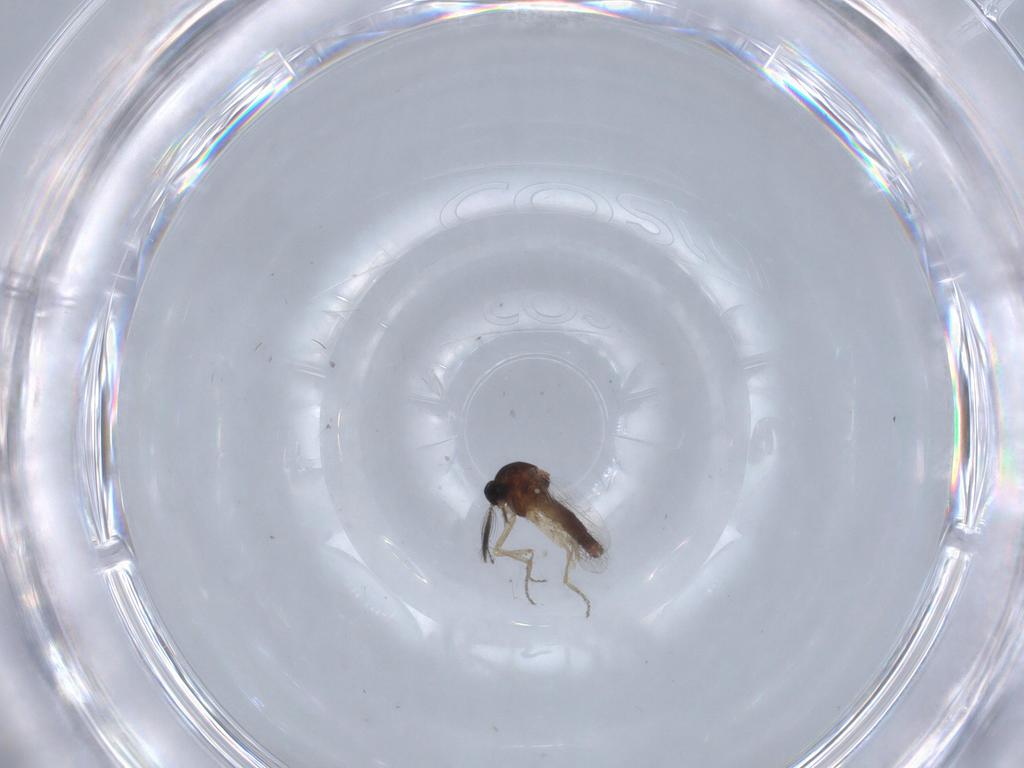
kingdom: Animalia
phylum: Arthropoda
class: Insecta
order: Diptera
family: Ceratopogonidae
